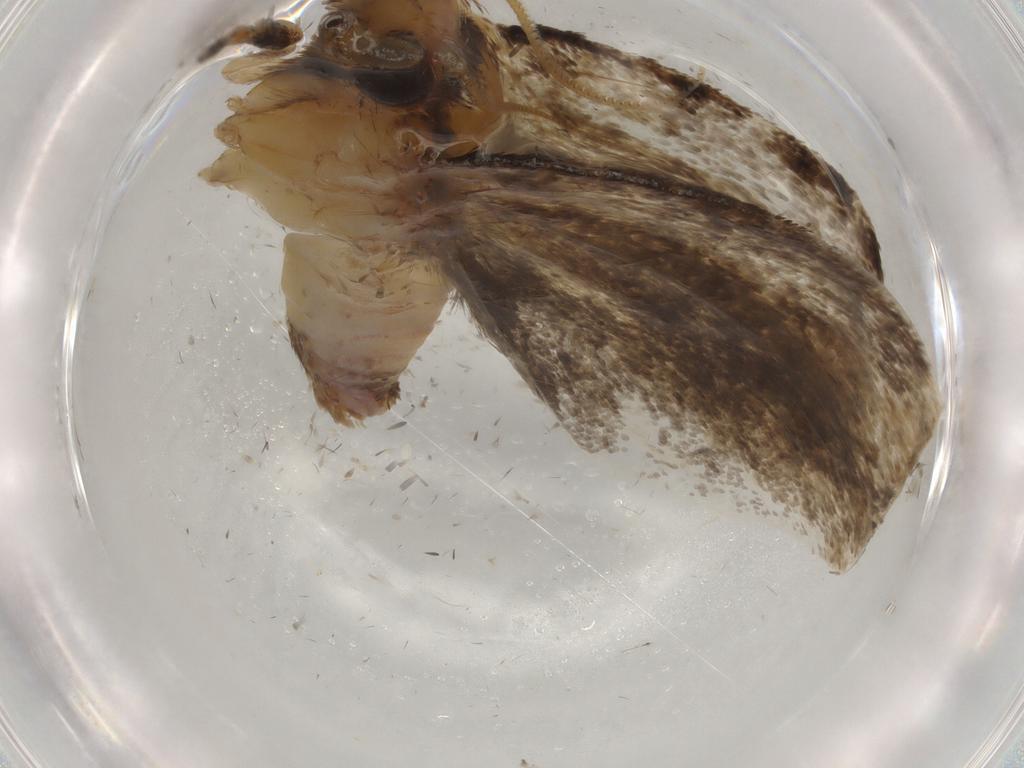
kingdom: Animalia
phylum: Arthropoda
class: Insecta
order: Lepidoptera
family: Tineidae
